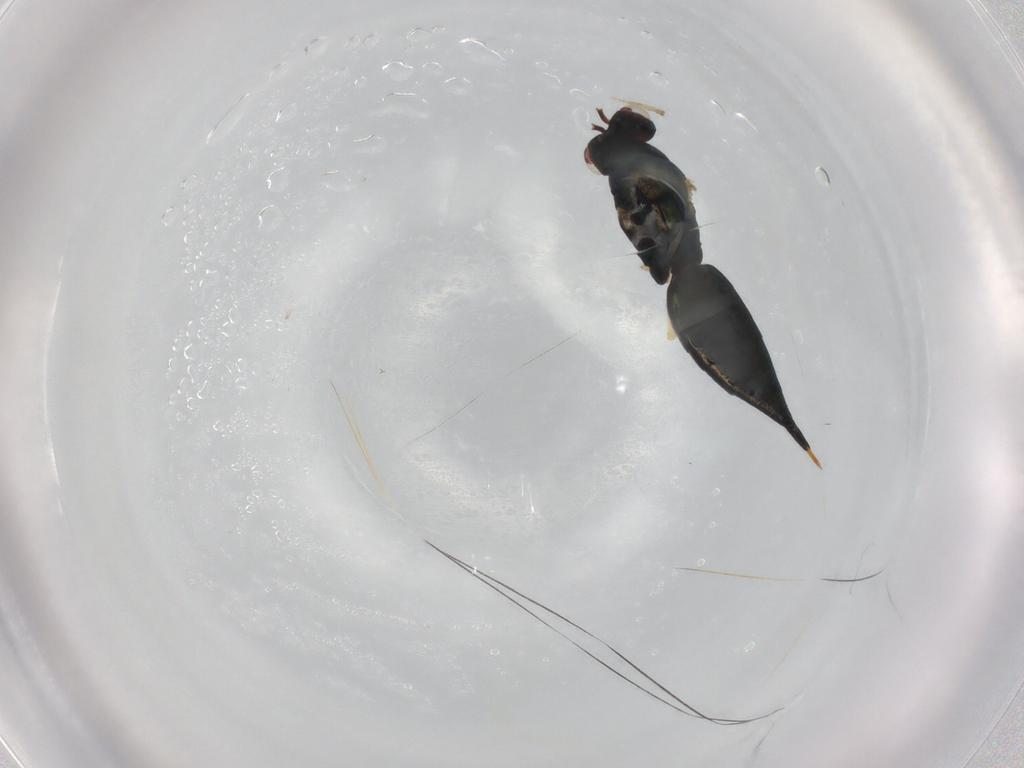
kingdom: Animalia
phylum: Arthropoda
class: Insecta
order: Hymenoptera
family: Eulophidae
